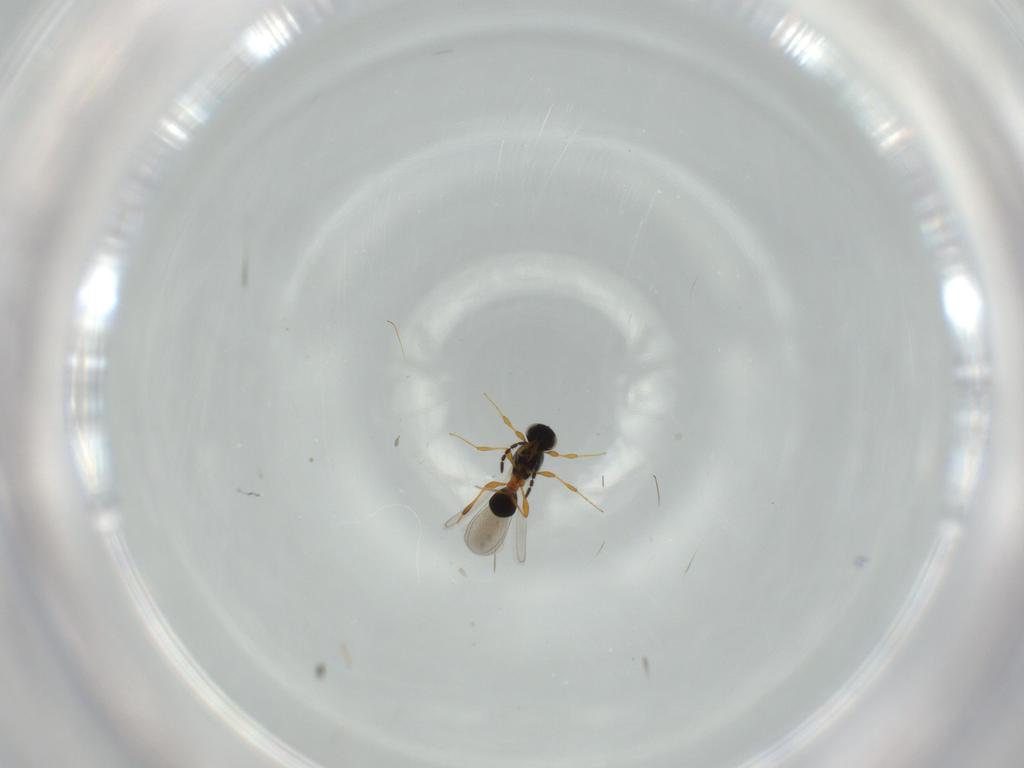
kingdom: Animalia
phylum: Arthropoda
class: Insecta
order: Hymenoptera
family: Platygastridae
